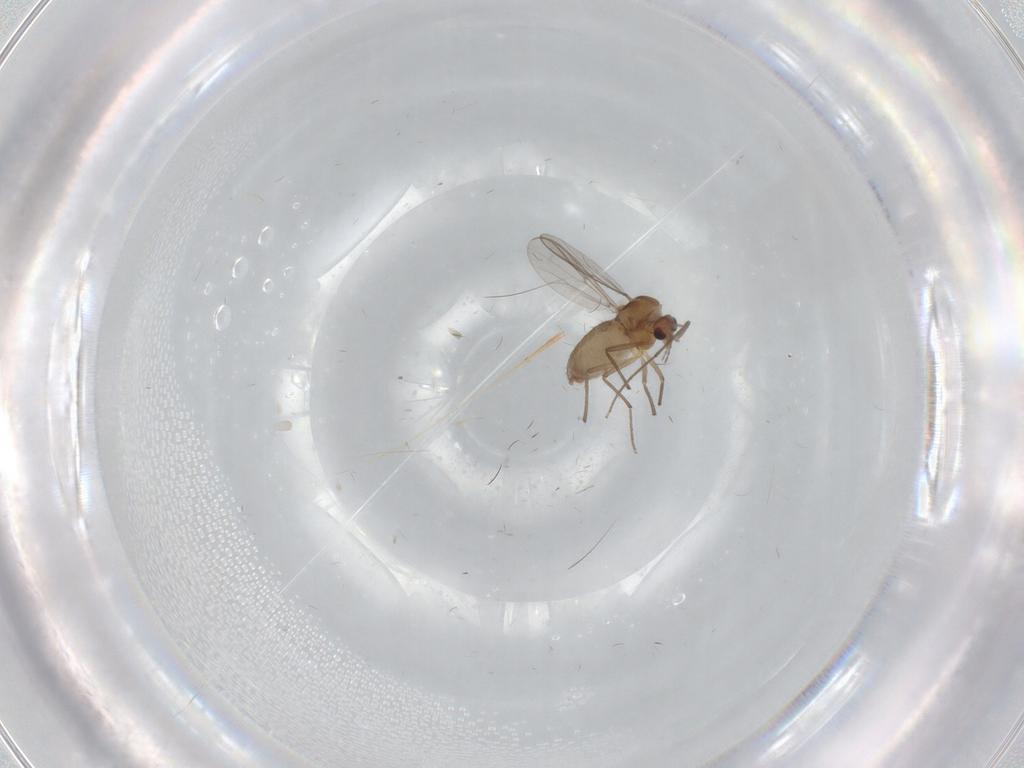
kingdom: Animalia
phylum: Arthropoda
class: Insecta
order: Diptera
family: Chironomidae
